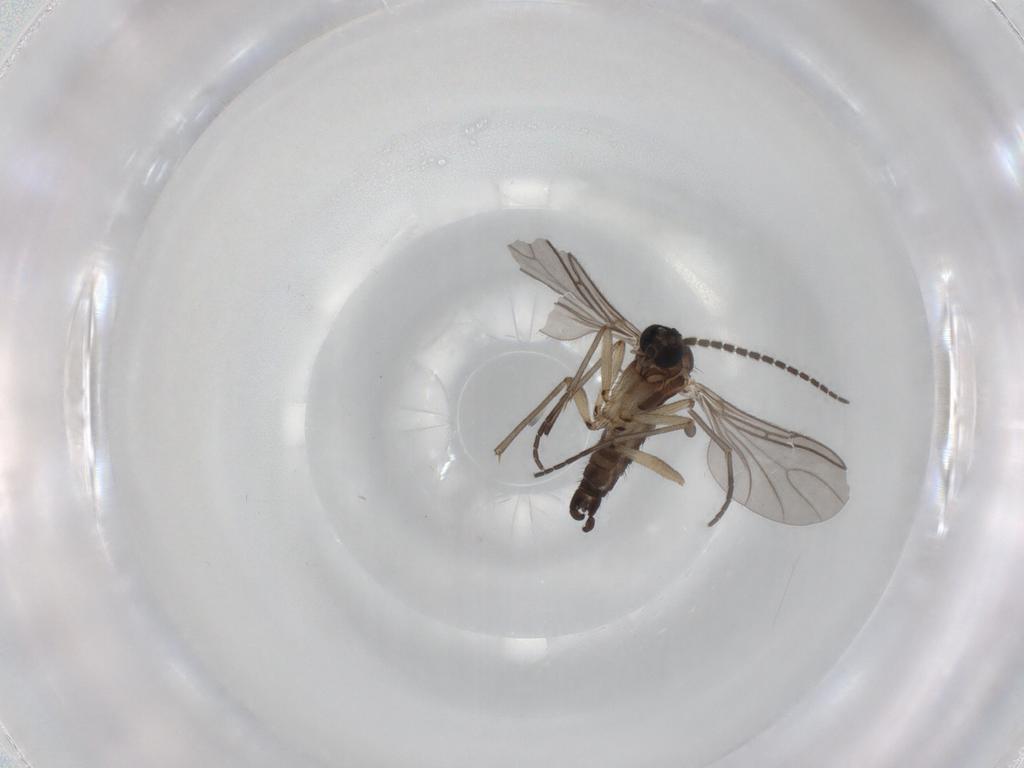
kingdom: Animalia
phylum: Arthropoda
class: Insecta
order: Diptera
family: Sciaridae
